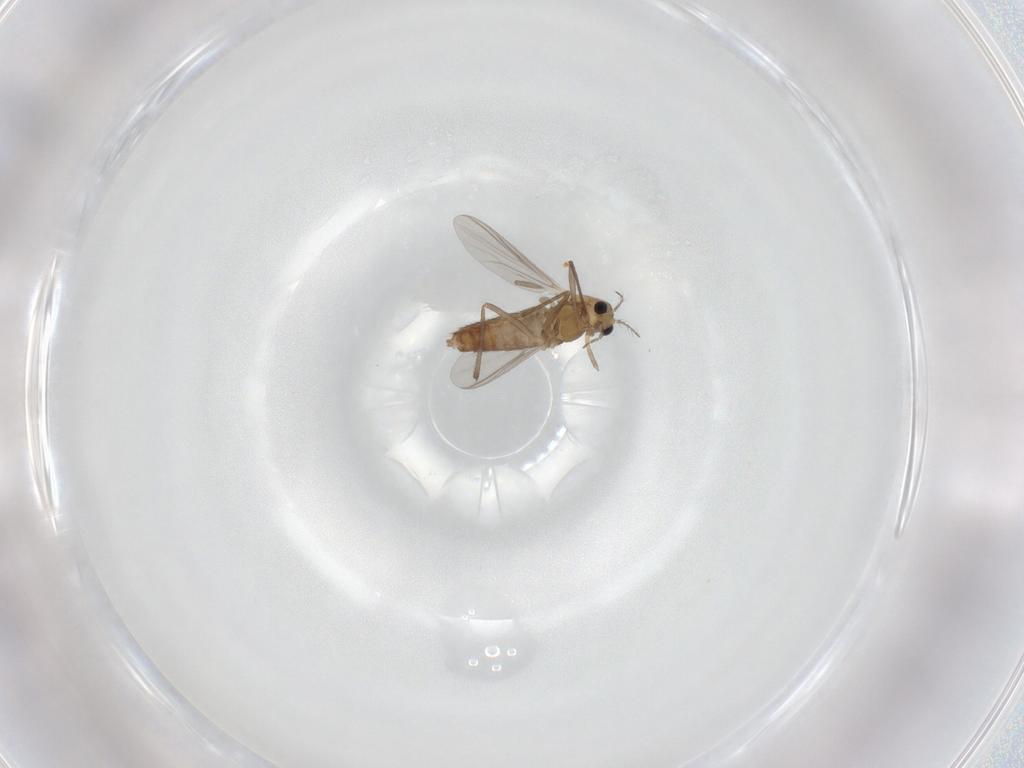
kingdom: Animalia
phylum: Arthropoda
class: Insecta
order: Diptera
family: Chironomidae
